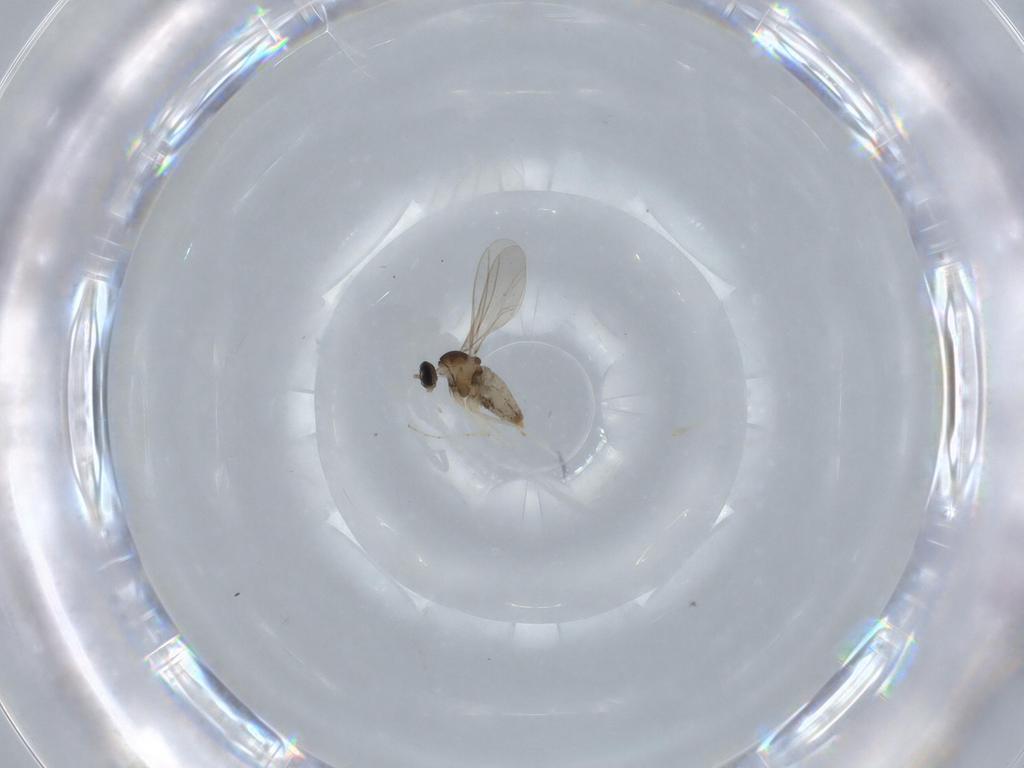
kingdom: Animalia
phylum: Arthropoda
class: Insecta
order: Diptera
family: Cecidomyiidae
